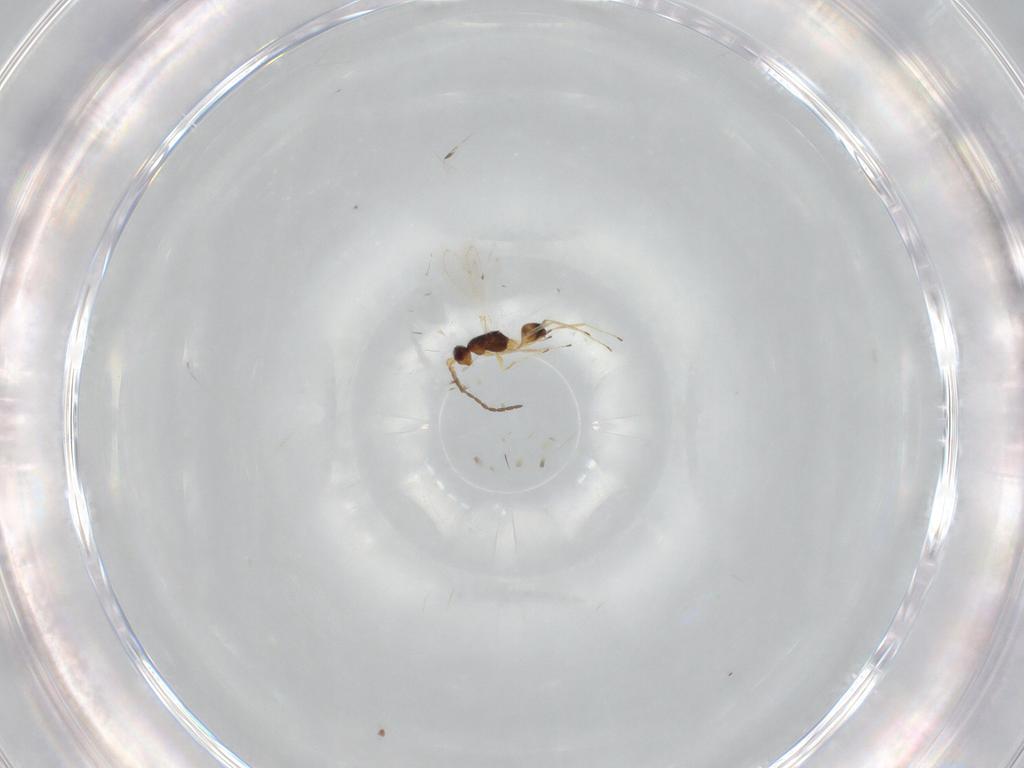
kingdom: Animalia
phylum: Arthropoda
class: Insecta
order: Hymenoptera
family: Mymaridae
